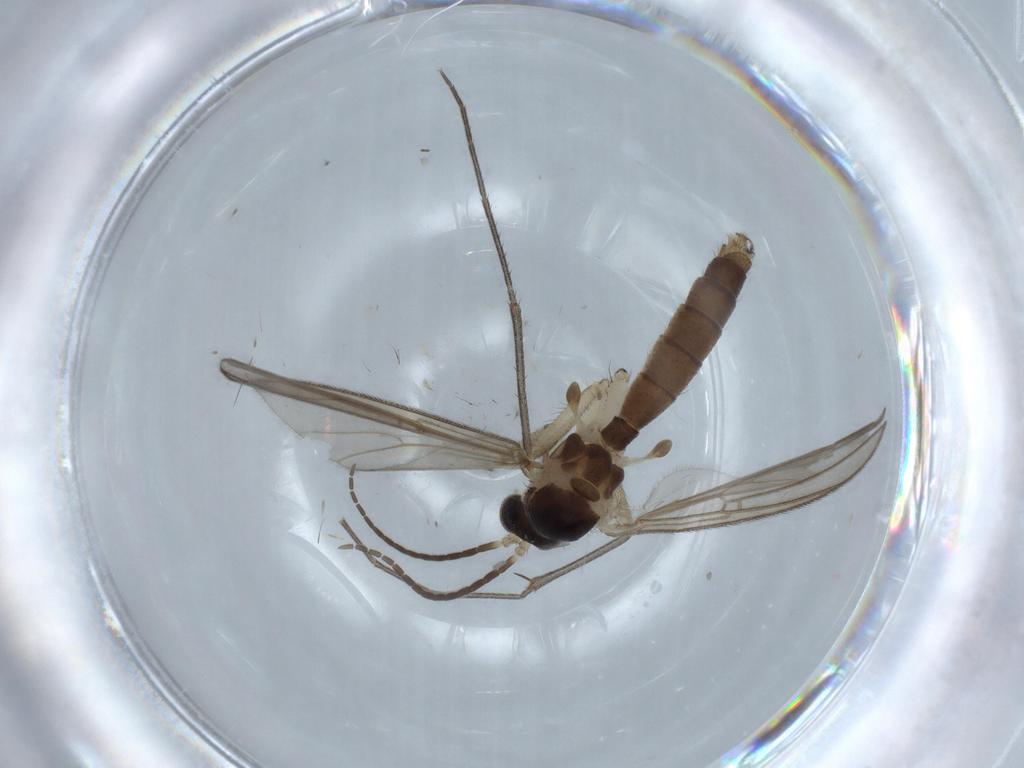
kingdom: Animalia
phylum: Arthropoda
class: Insecta
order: Diptera
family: Mycetophilidae
